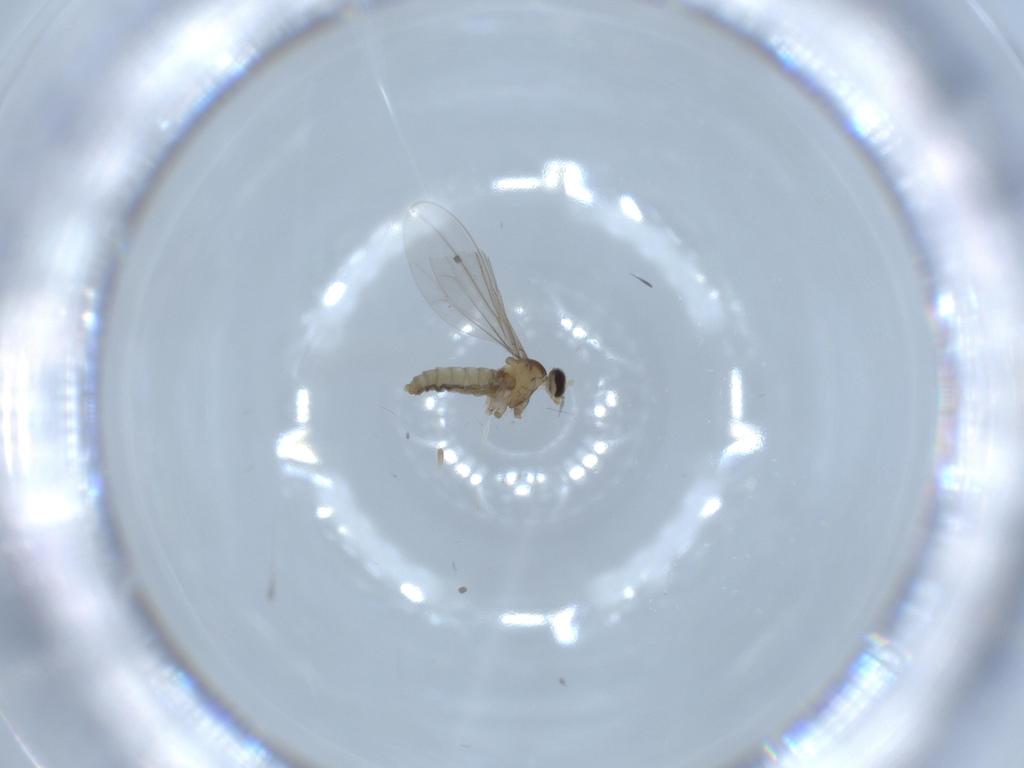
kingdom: Animalia
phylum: Arthropoda
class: Insecta
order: Diptera
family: Cecidomyiidae
